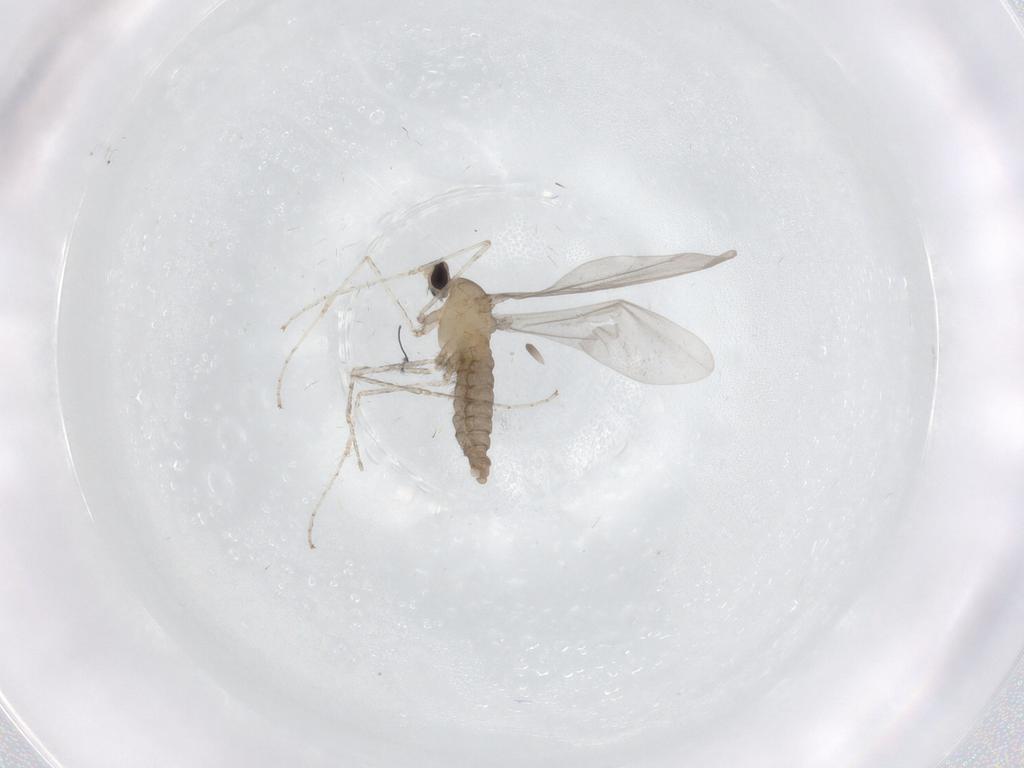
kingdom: Animalia
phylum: Arthropoda
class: Insecta
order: Diptera
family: Cecidomyiidae
